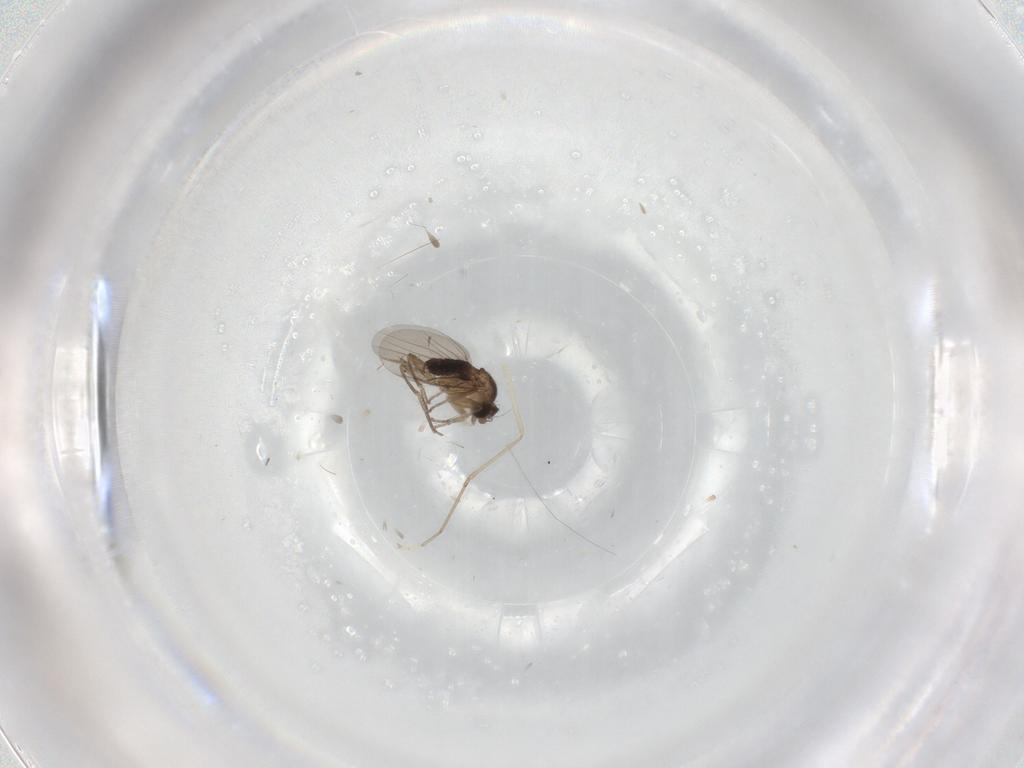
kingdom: Animalia
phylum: Arthropoda
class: Insecta
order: Diptera
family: Phoridae
